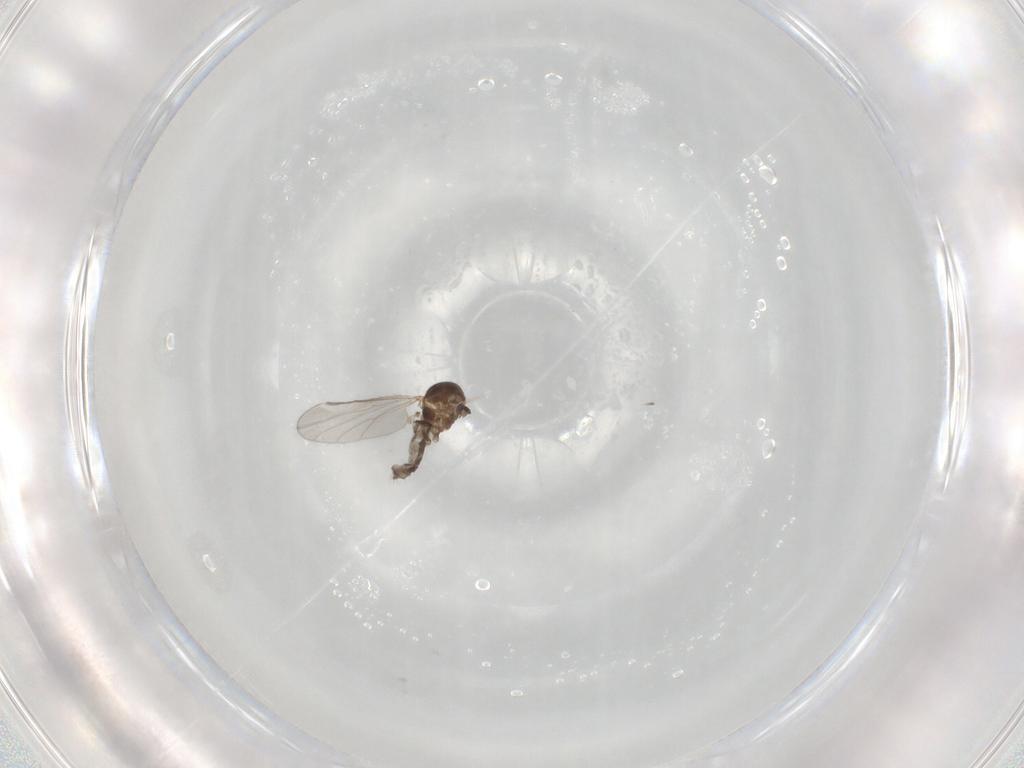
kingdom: Animalia
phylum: Arthropoda
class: Insecta
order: Diptera
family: Ceratopogonidae
